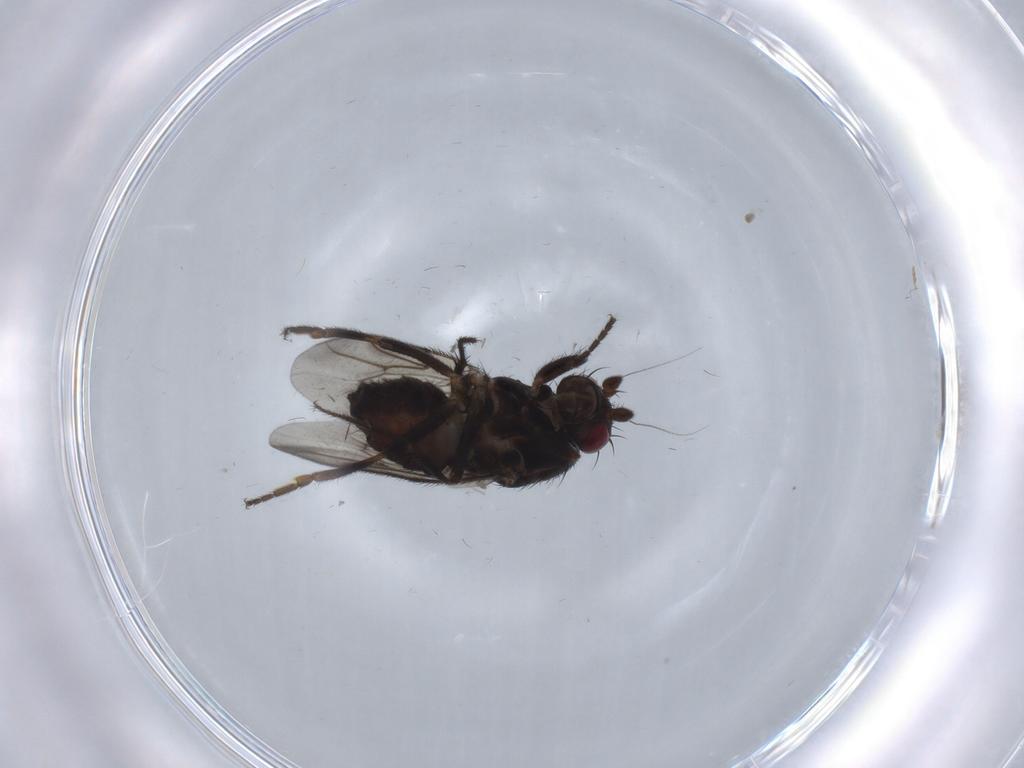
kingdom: Animalia
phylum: Arthropoda
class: Insecta
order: Diptera
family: Sphaeroceridae
